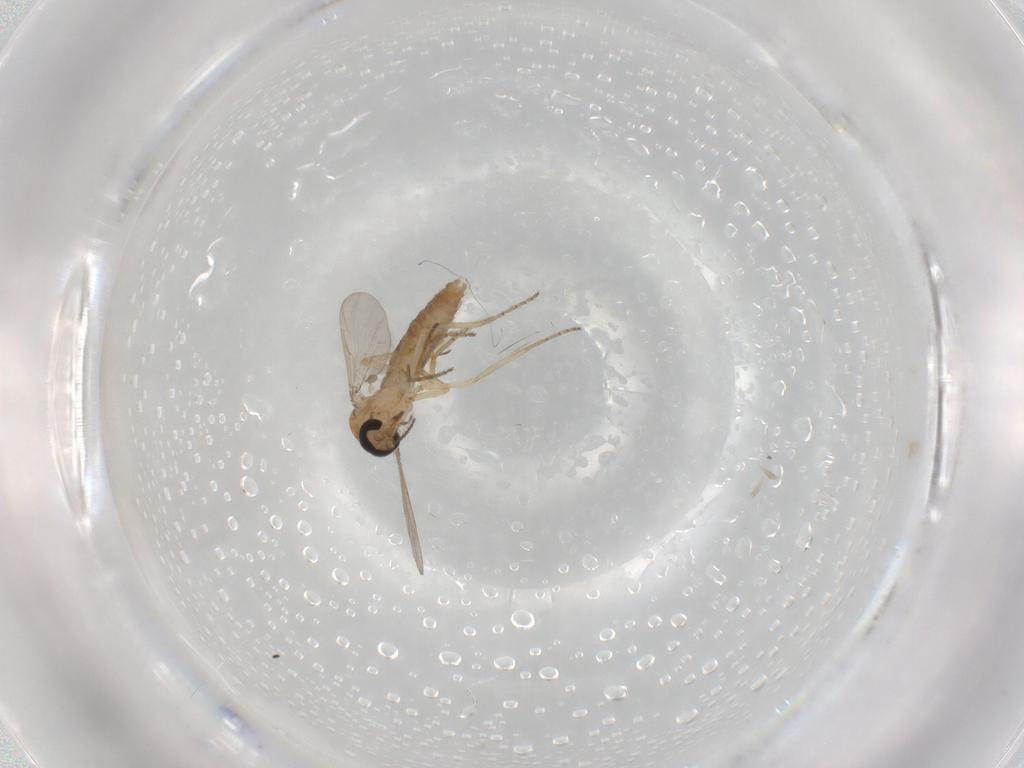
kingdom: Animalia
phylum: Arthropoda
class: Insecta
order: Diptera
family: Ceratopogonidae
